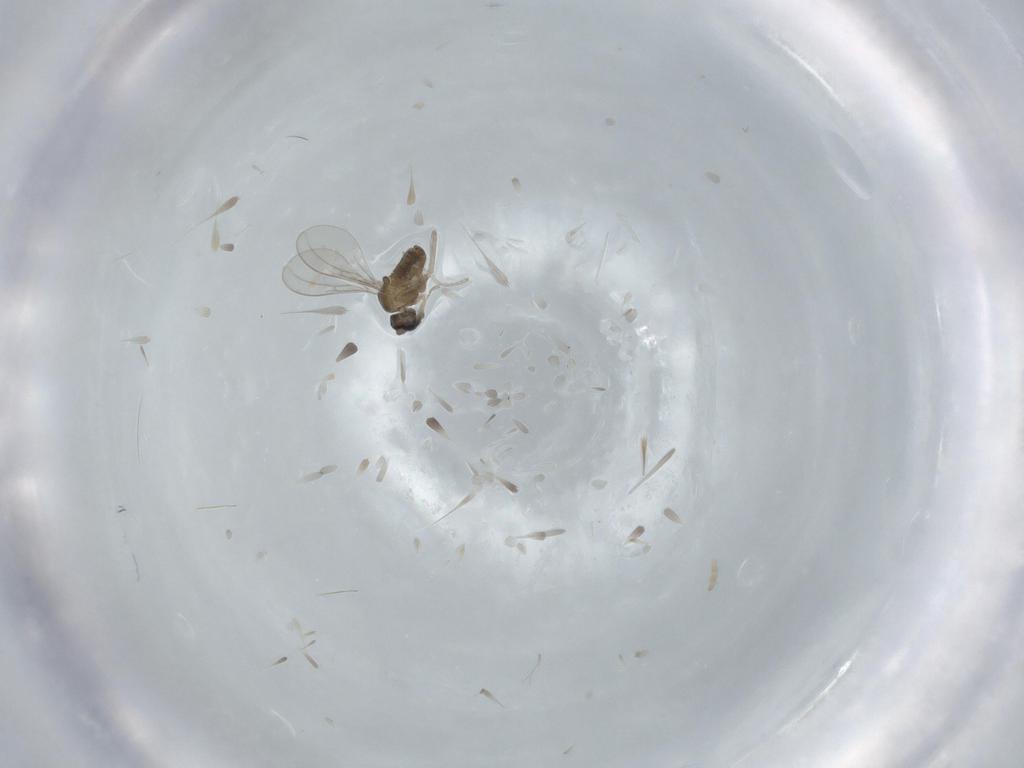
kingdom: Animalia
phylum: Arthropoda
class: Insecta
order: Diptera
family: Cecidomyiidae
